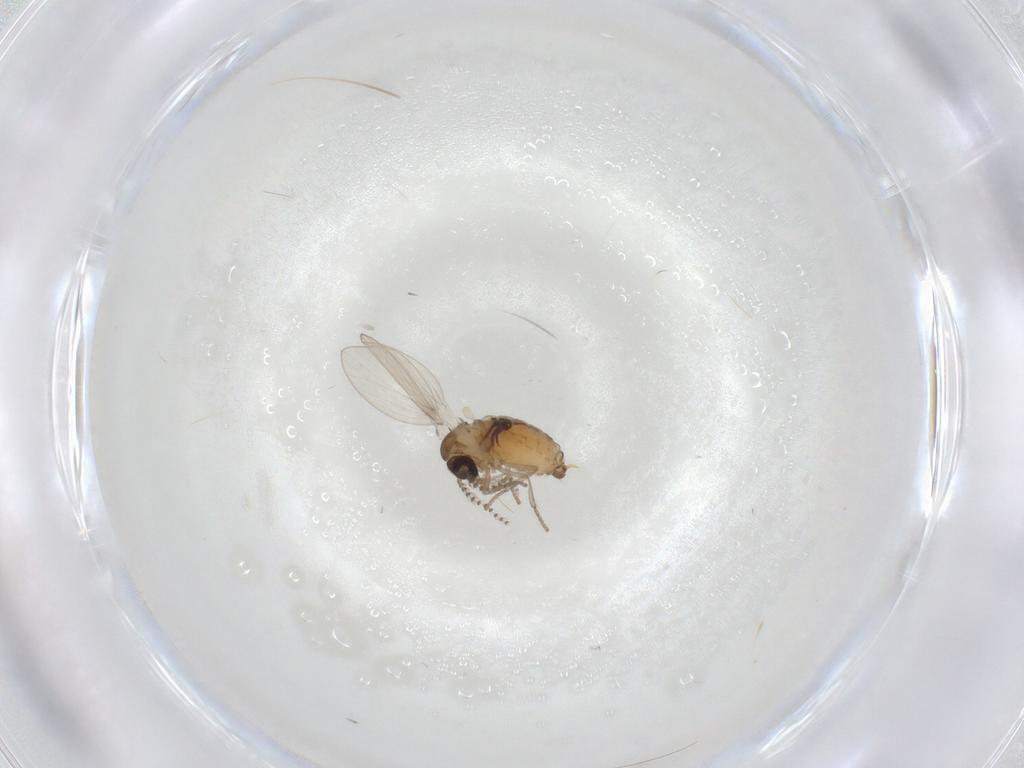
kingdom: Animalia
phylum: Arthropoda
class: Insecta
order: Diptera
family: Psychodidae
